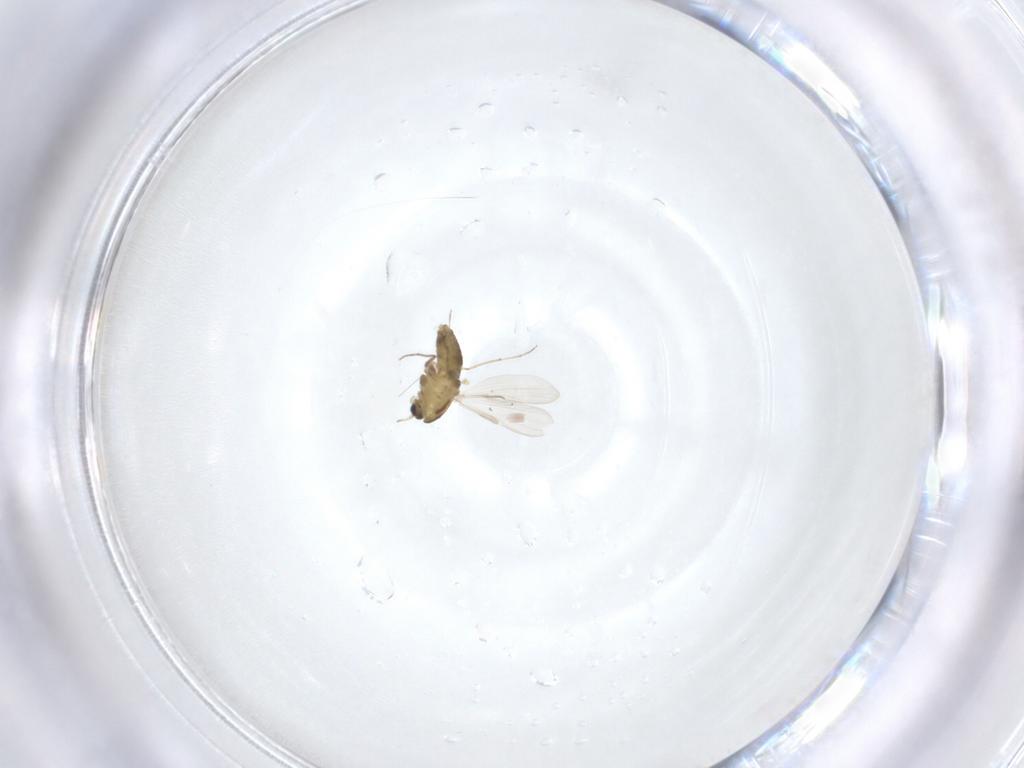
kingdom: Animalia
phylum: Arthropoda
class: Insecta
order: Diptera
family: Chironomidae
